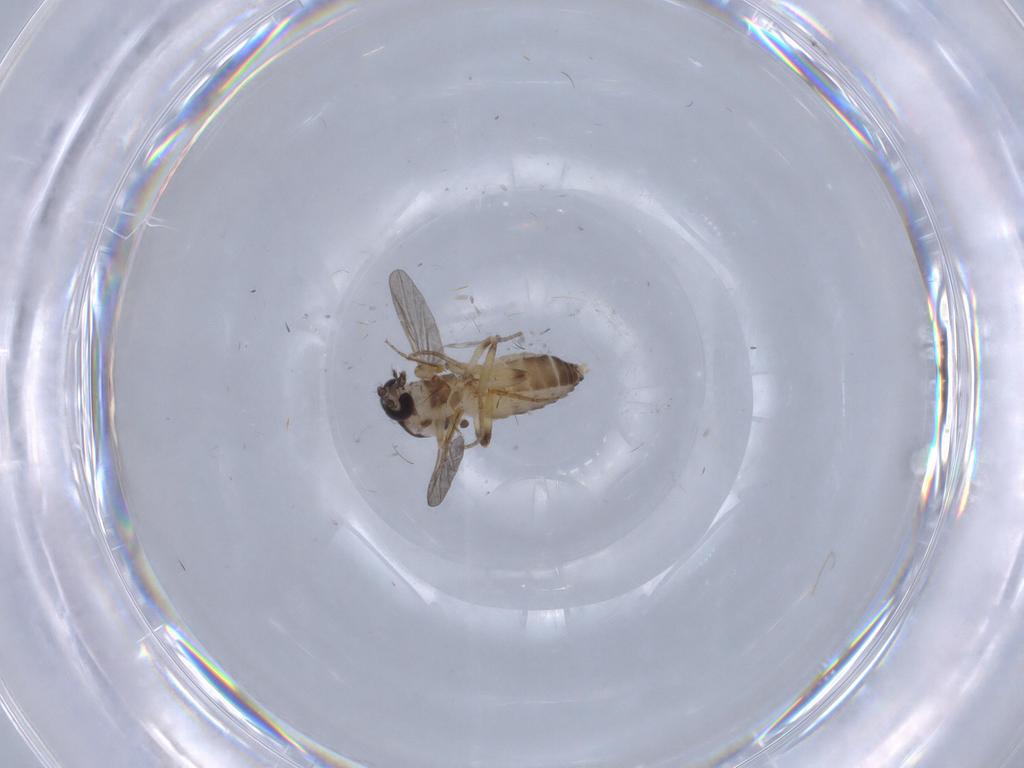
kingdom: Animalia
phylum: Arthropoda
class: Insecta
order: Diptera
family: Ceratopogonidae
